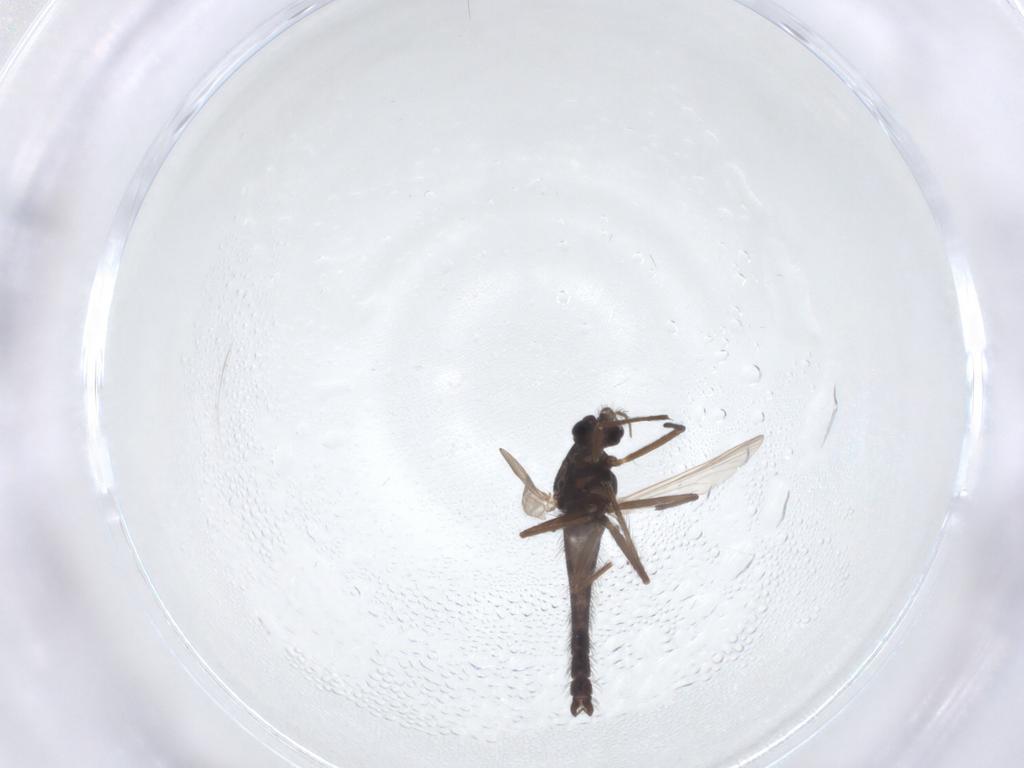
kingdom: Animalia
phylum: Arthropoda
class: Insecta
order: Diptera
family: Chironomidae
